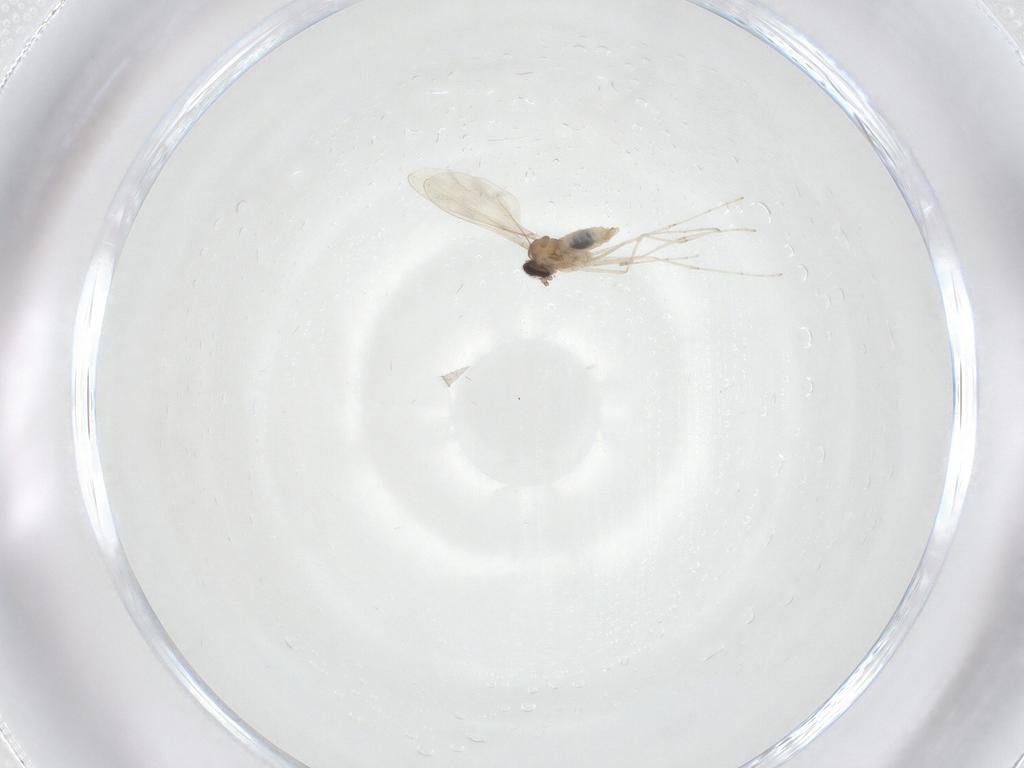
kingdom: Animalia
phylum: Arthropoda
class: Insecta
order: Diptera
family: Cecidomyiidae
